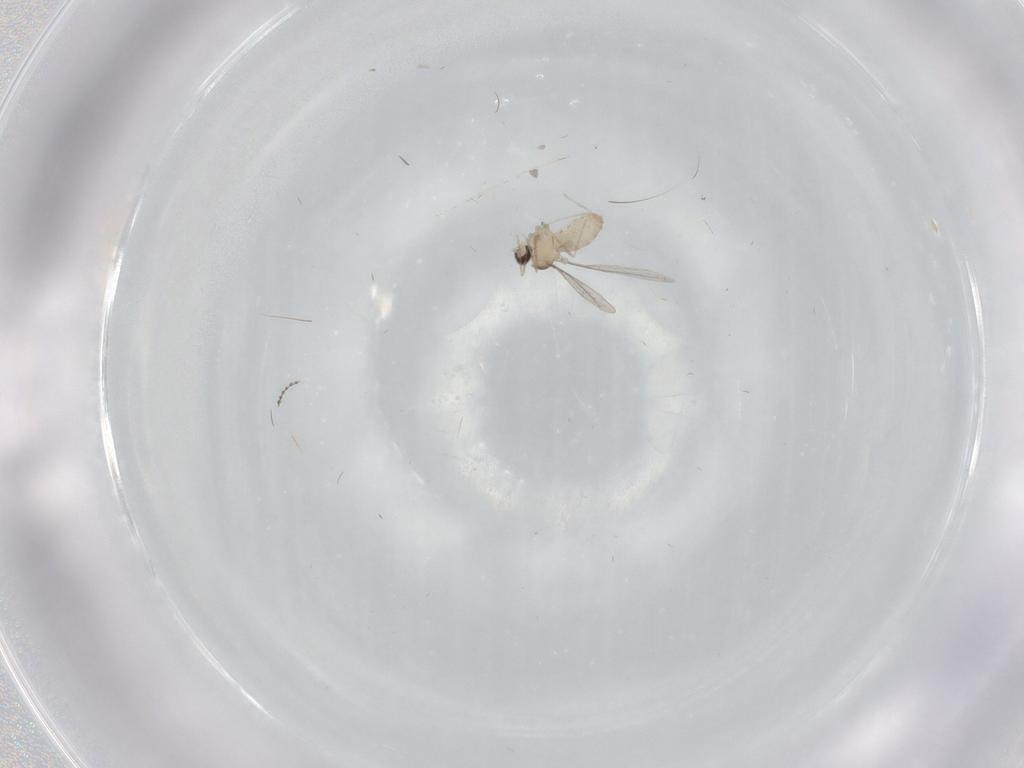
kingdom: Animalia
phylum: Arthropoda
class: Insecta
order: Diptera
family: Cecidomyiidae
